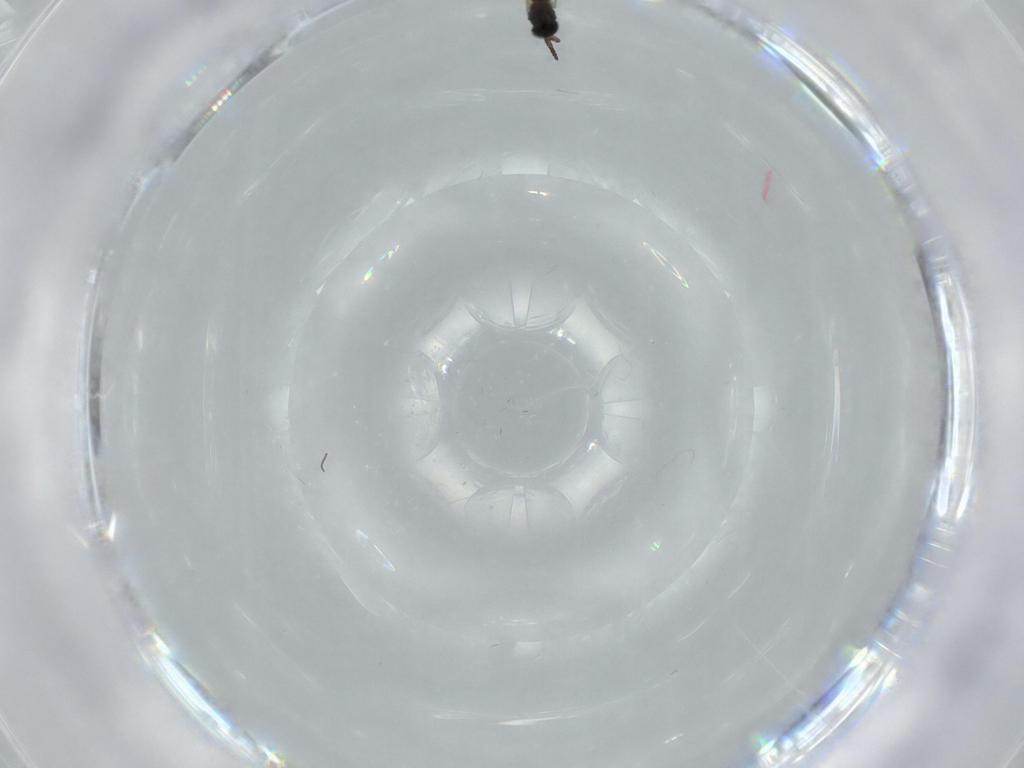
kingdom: Animalia
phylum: Arthropoda
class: Insecta
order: Hymenoptera
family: Scelionidae
